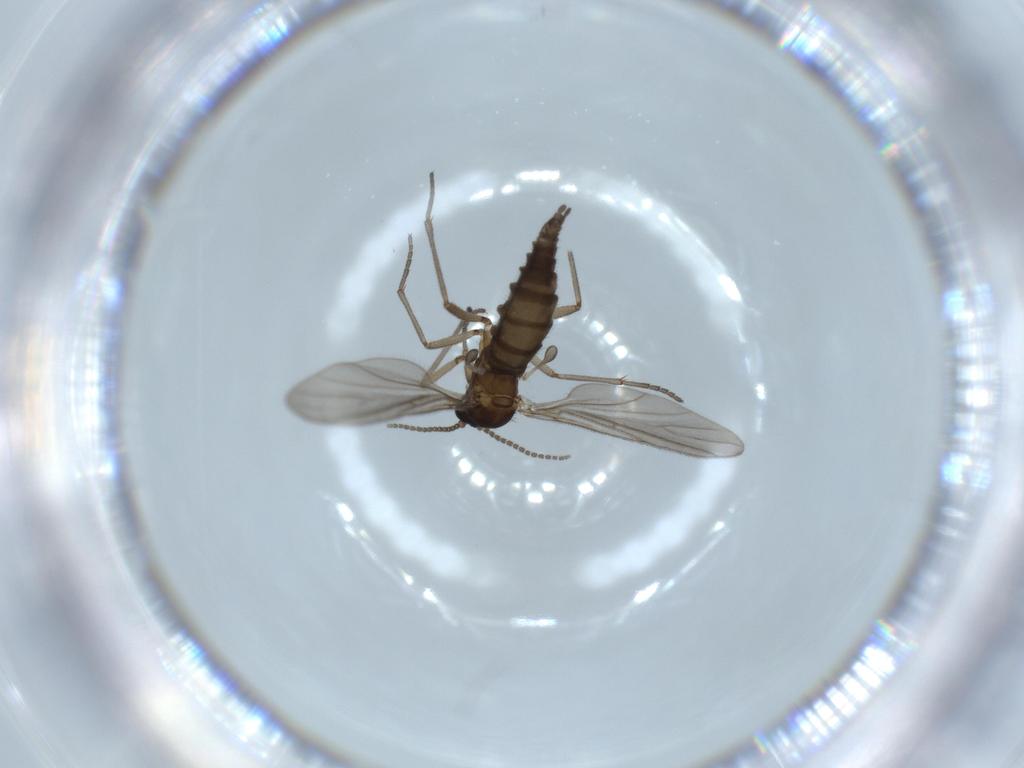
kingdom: Animalia
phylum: Arthropoda
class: Insecta
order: Diptera
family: Sciaridae
